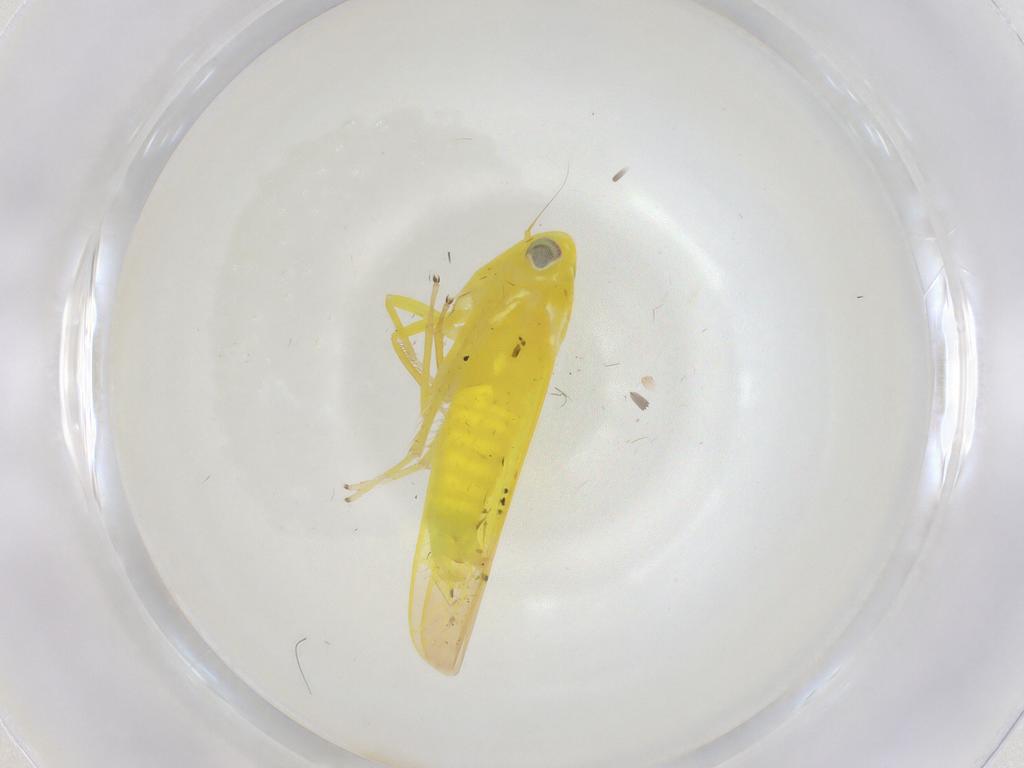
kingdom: Animalia
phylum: Arthropoda
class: Insecta
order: Hemiptera
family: Cicadellidae
